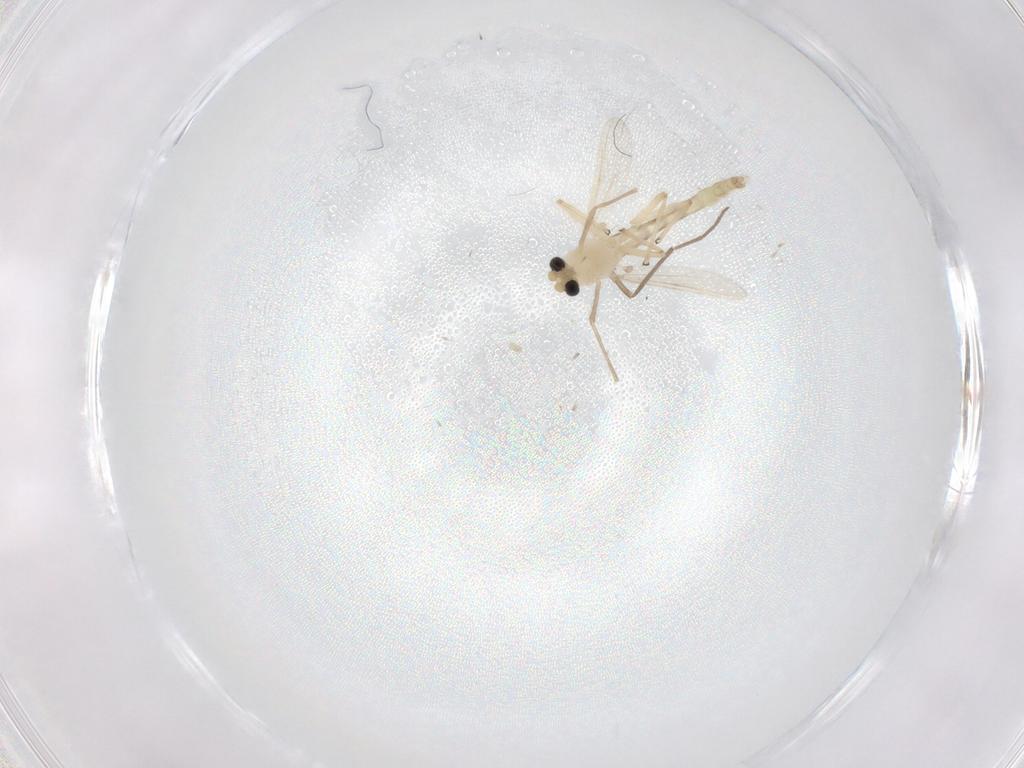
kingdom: Animalia
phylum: Arthropoda
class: Insecta
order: Diptera
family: Chironomidae
